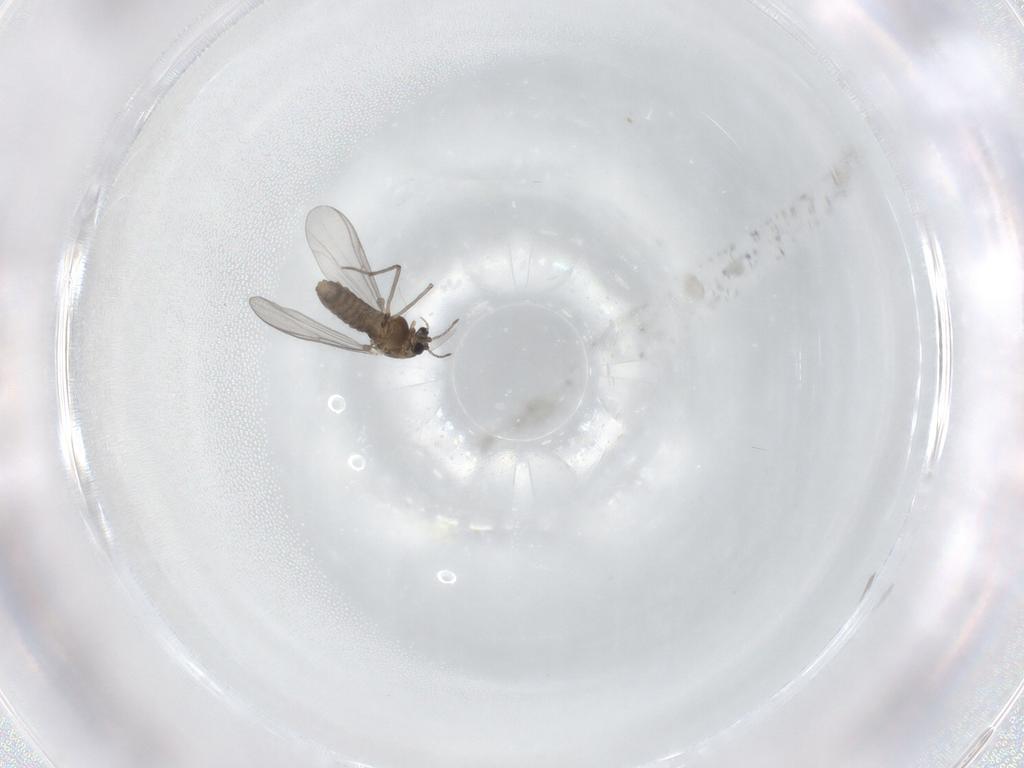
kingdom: Animalia
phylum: Arthropoda
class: Insecta
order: Diptera
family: Chironomidae
